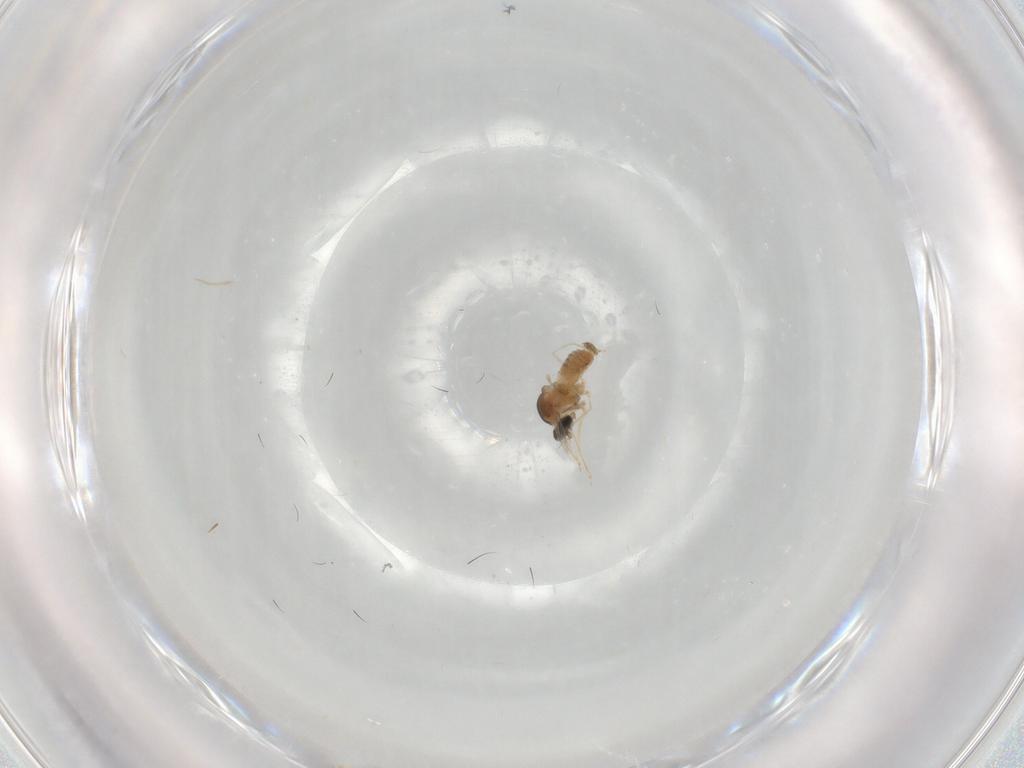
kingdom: Animalia
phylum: Arthropoda
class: Insecta
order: Diptera
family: Cecidomyiidae
